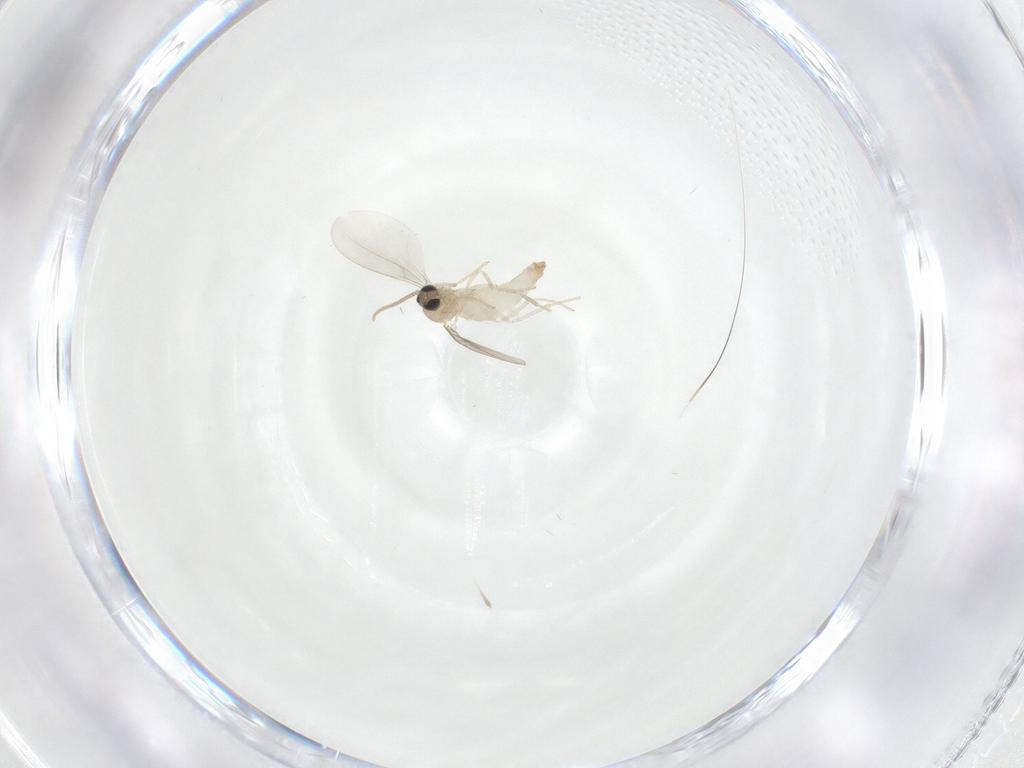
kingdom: Animalia
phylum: Arthropoda
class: Insecta
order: Diptera
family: Cecidomyiidae
